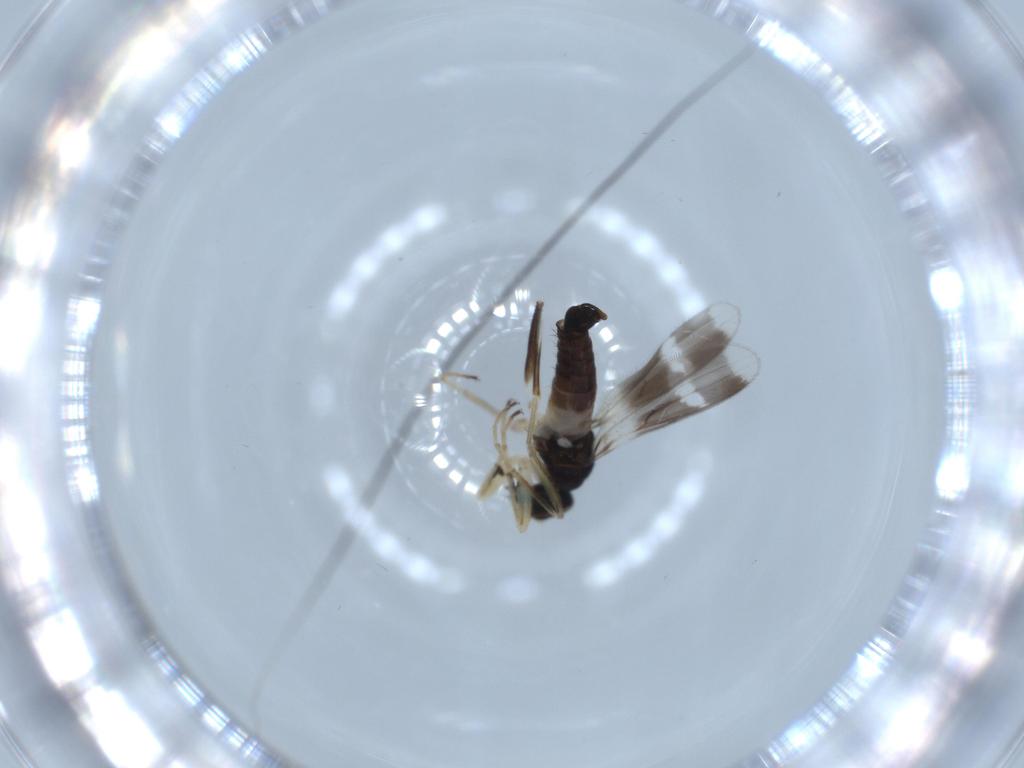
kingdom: Animalia
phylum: Arthropoda
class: Insecta
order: Diptera
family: Hybotidae
